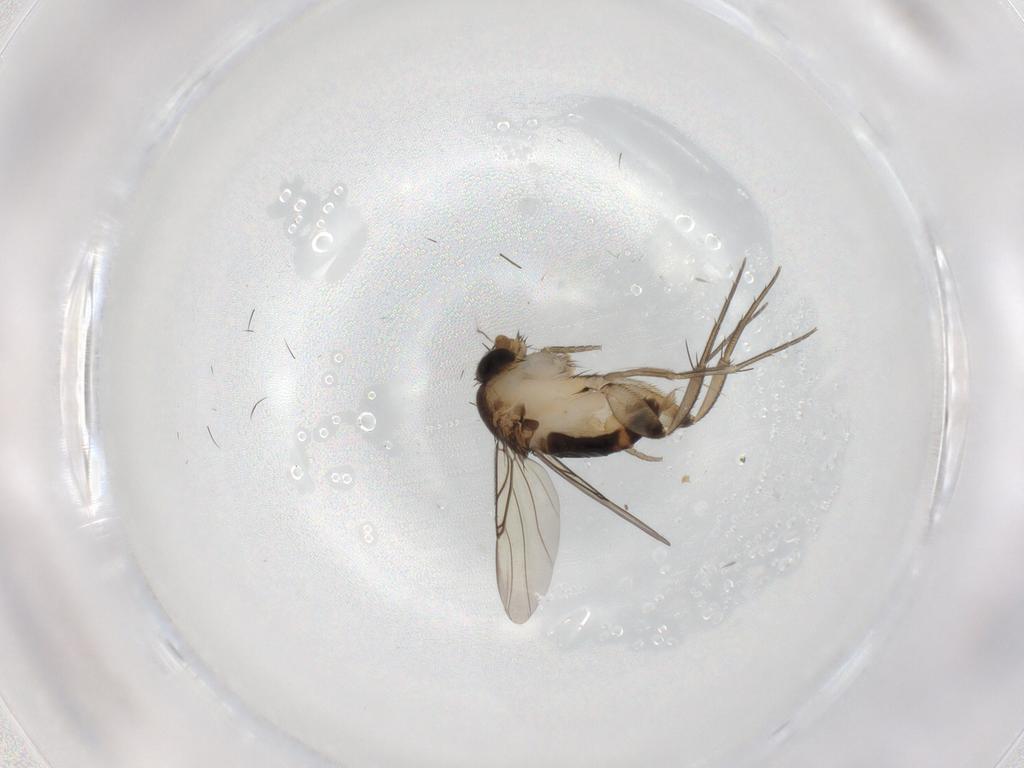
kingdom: Animalia
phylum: Arthropoda
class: Insecta
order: Diptera
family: Phoridae
